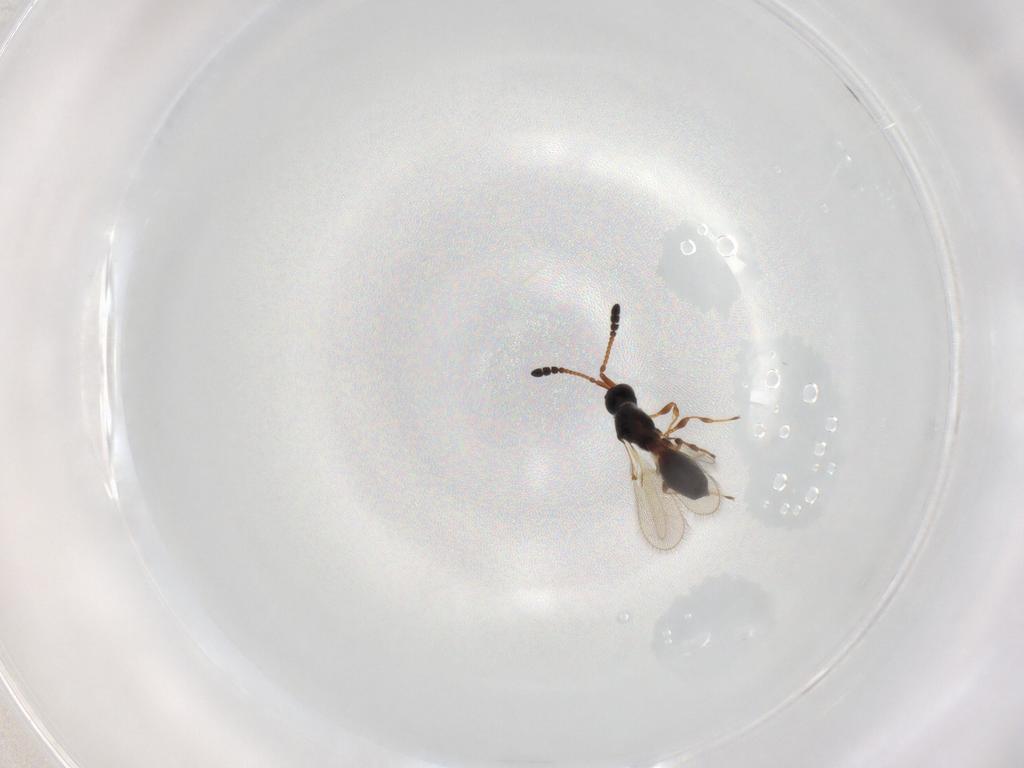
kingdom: Animalia
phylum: Arthropoda
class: Insecta
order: Hymenoptera
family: Diapriidae
